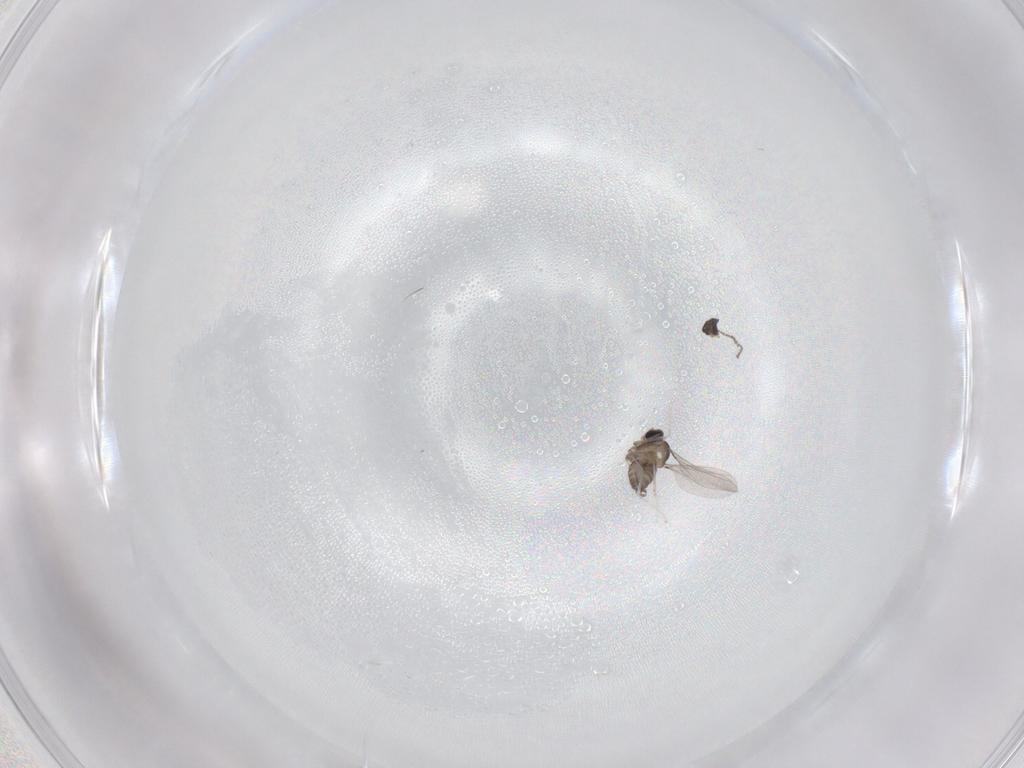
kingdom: Animalia
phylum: Arthropoda
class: Insecta
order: Diptera
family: Cecidomyiidae
